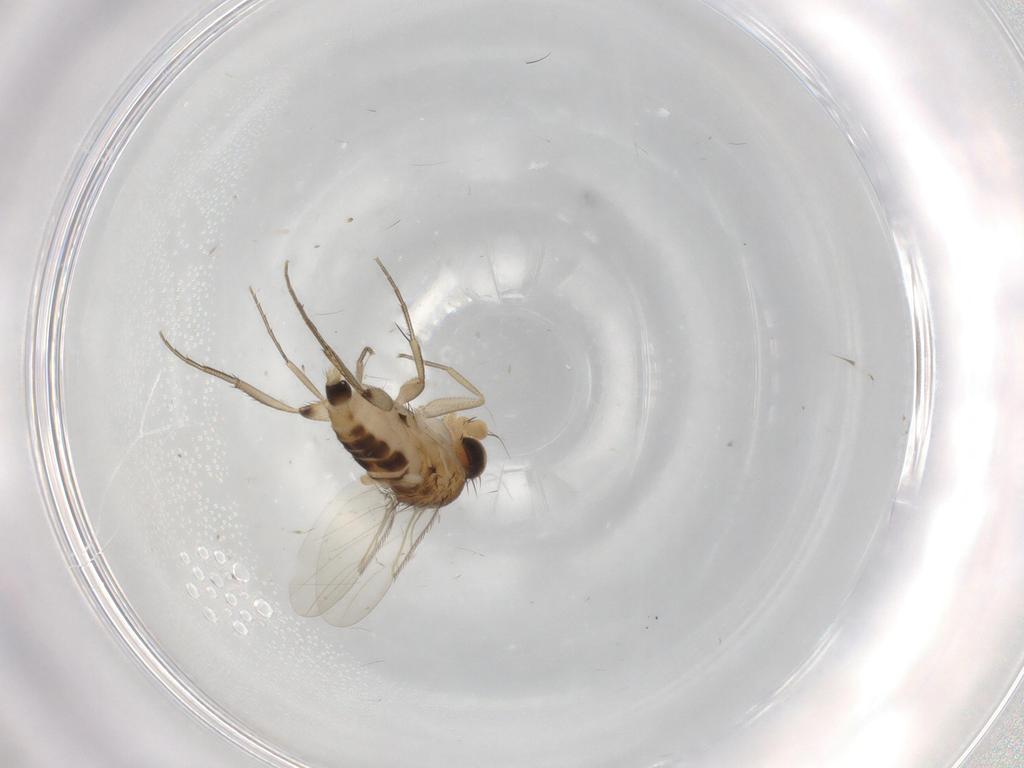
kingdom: Animalia
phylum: Arthropoda
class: Insecta
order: Diptera
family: Phoridae
